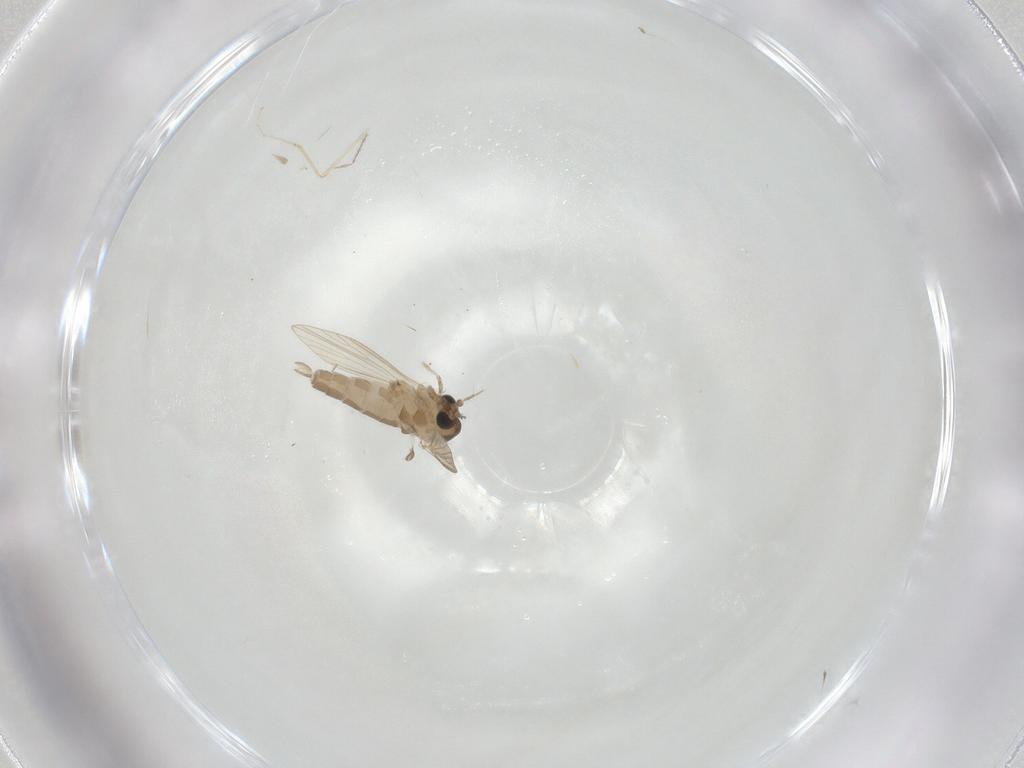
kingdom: Animalia
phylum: Arthropoda
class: Insecta
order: Diptera
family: Psychodidae
